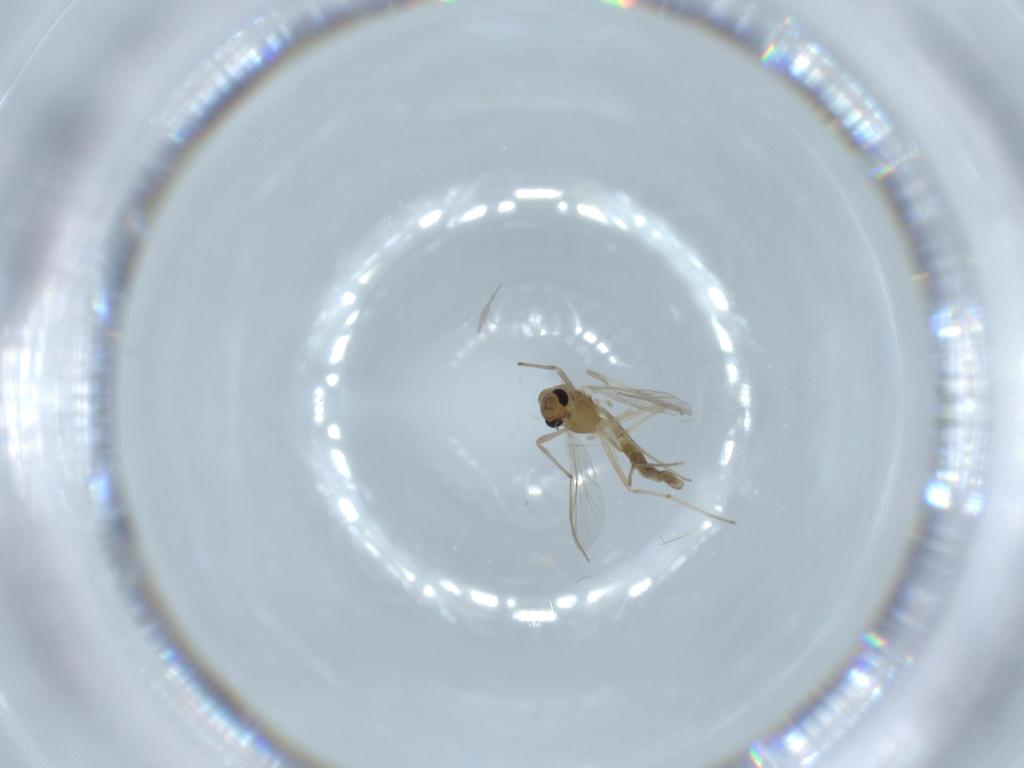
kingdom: Animalia
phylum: Arthropoda
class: Insecta
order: Diptera
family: Chironomidae
